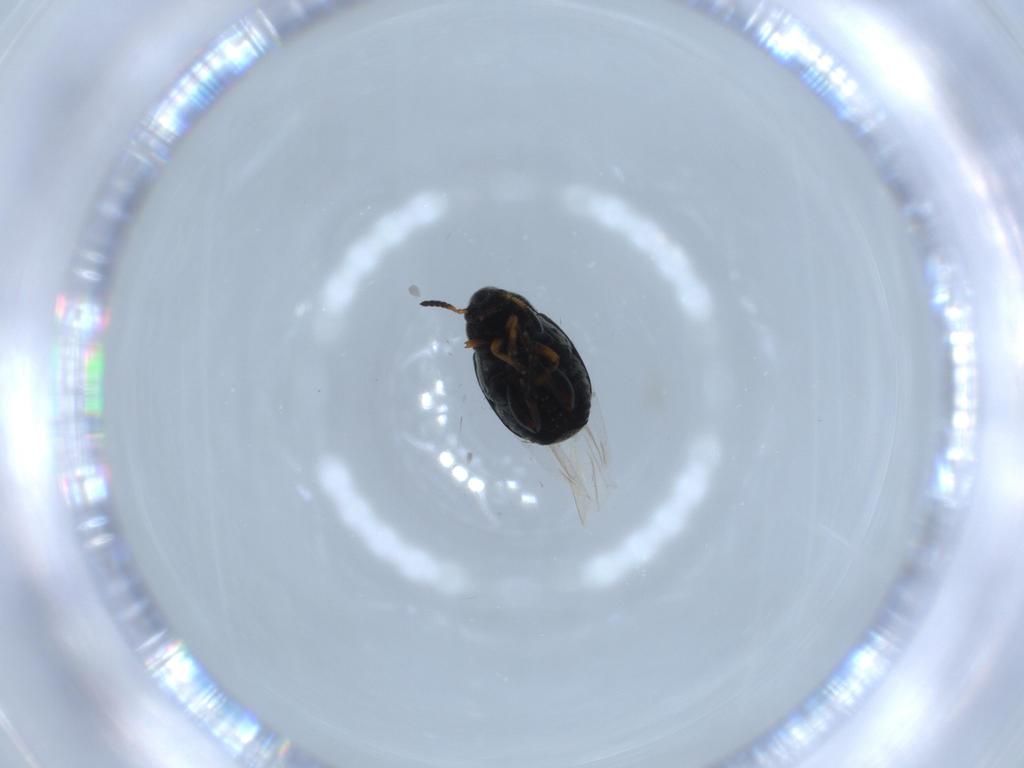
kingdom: Animalia
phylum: Arthropoda
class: Insecta
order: Coleoptera
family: Chrysomelidae
